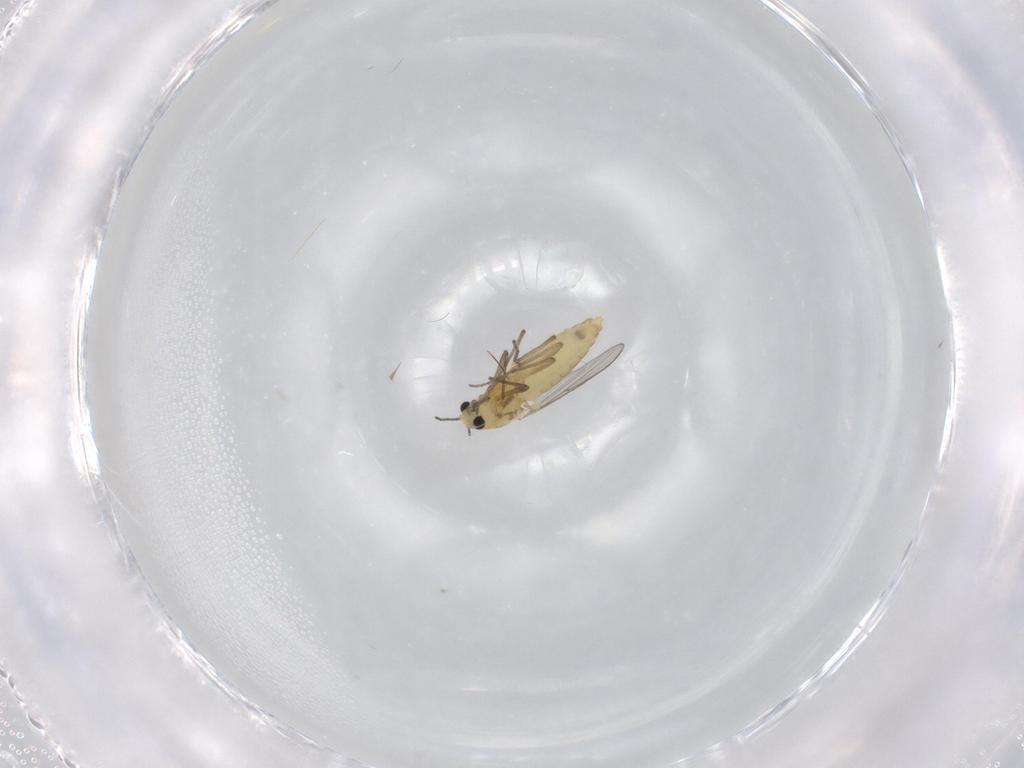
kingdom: Animalia
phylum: Arthropoda
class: Insecta
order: Diptera
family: Chironomidae
